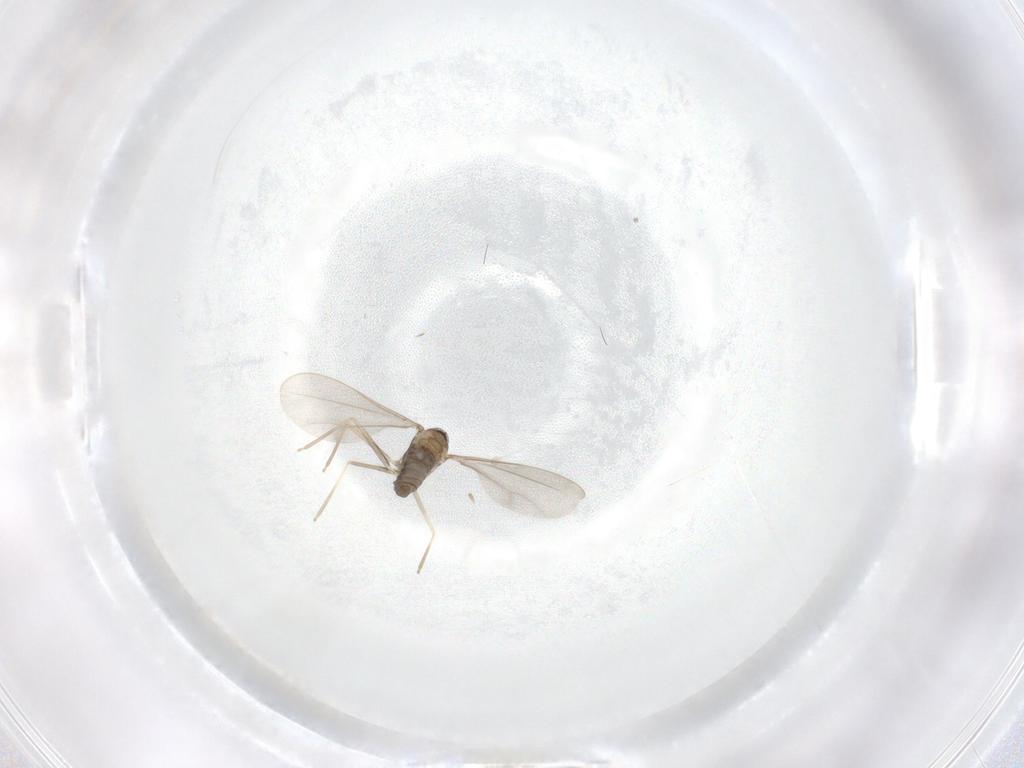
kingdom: Animalia
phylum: Arthropoda
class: Insecta
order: Diptera
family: Cecidomyiidae
